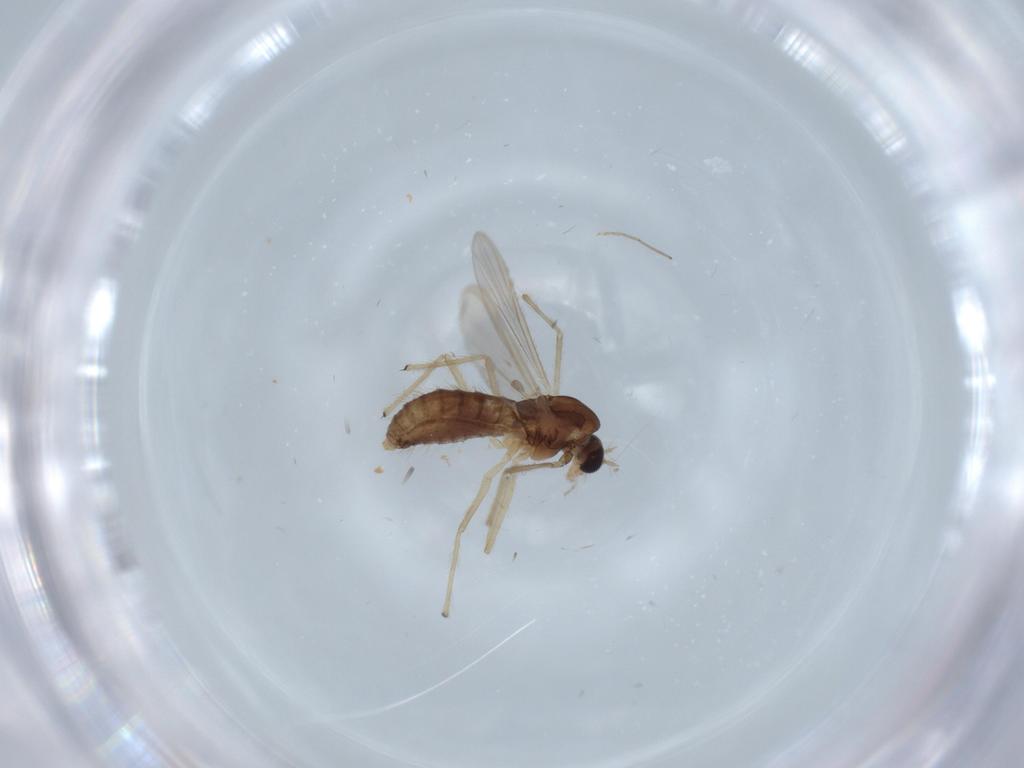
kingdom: Animalia
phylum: Arthropoda
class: Insecta
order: Diptera
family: Chironomidae
